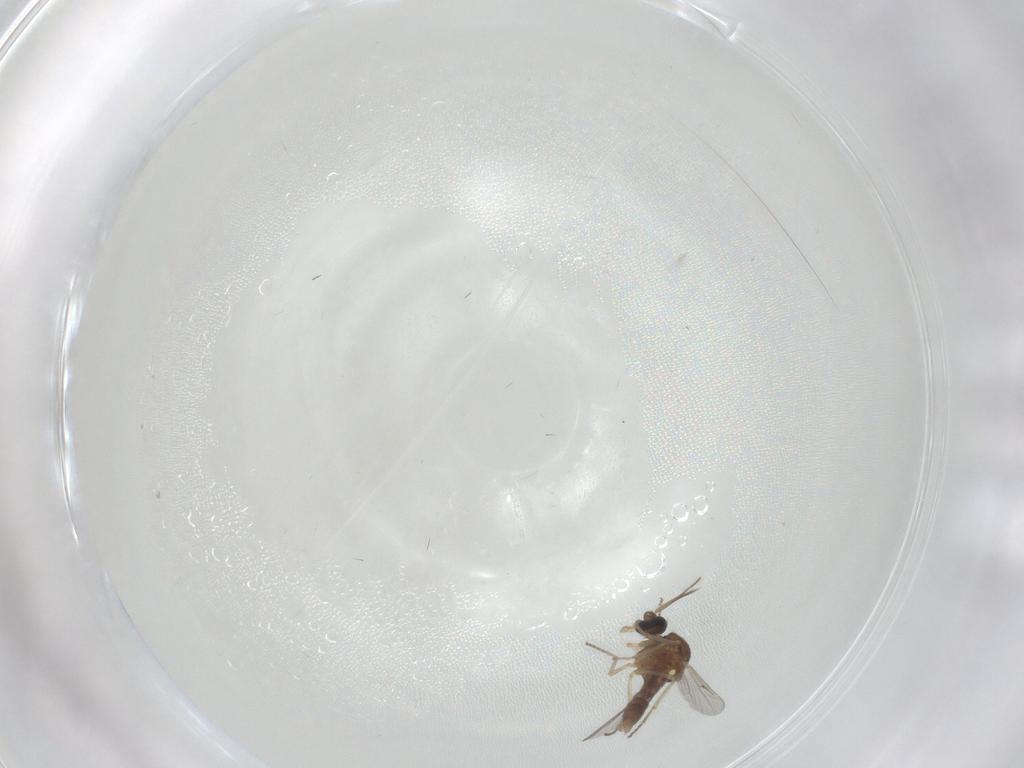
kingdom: Animalia
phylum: Arthropoda
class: Insecta
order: Diptera
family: Ceratopogonidae
